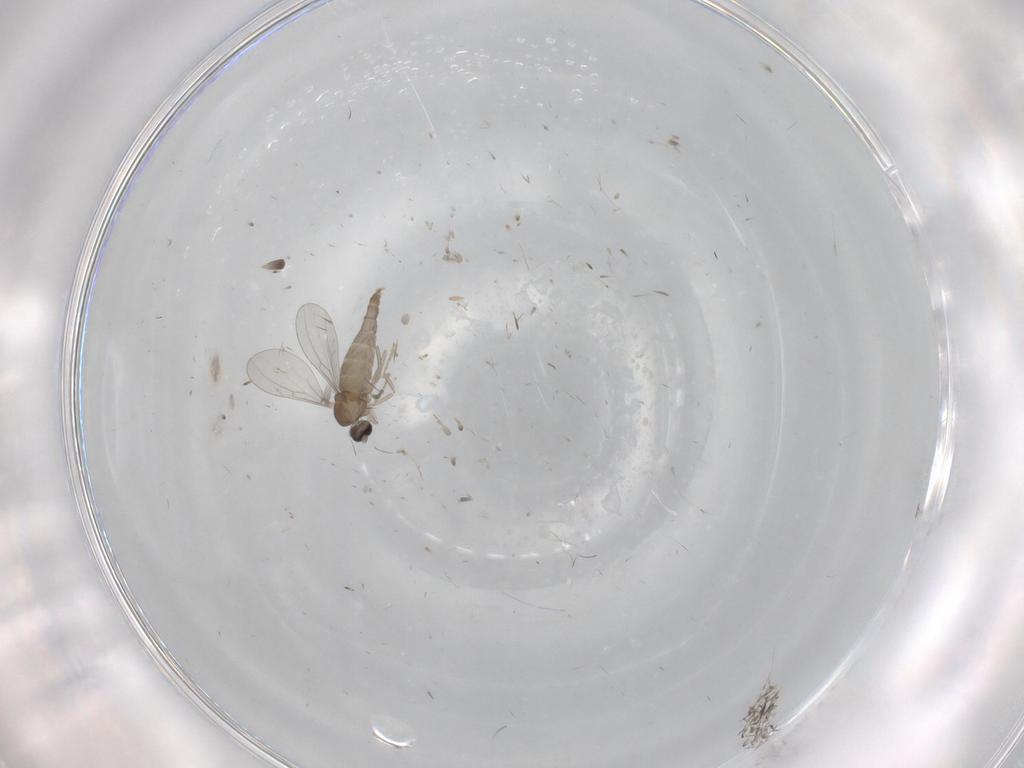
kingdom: Animalia
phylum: Arthropoda
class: Insecta
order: Diptera
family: Cecidomyiidae
